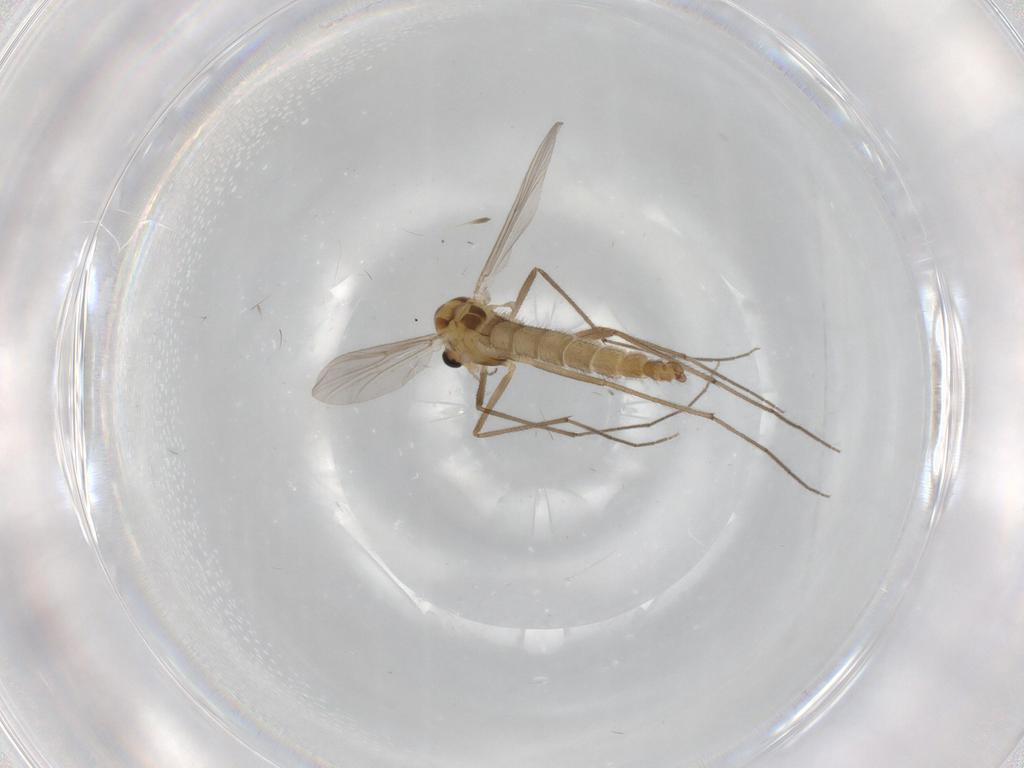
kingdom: Animalia
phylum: Arthropoda
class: Insecta
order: Diptera
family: Chironomidae
